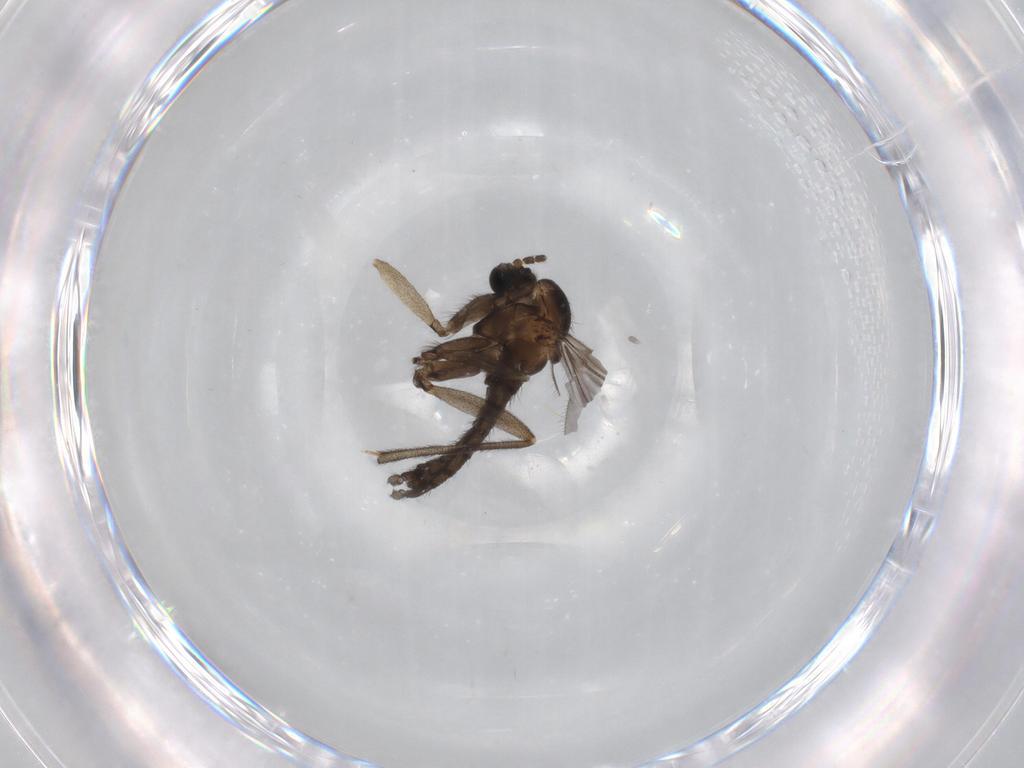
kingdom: Animalia
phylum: Arthropoda
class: Insecta
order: Diptera
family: Sciaridae
